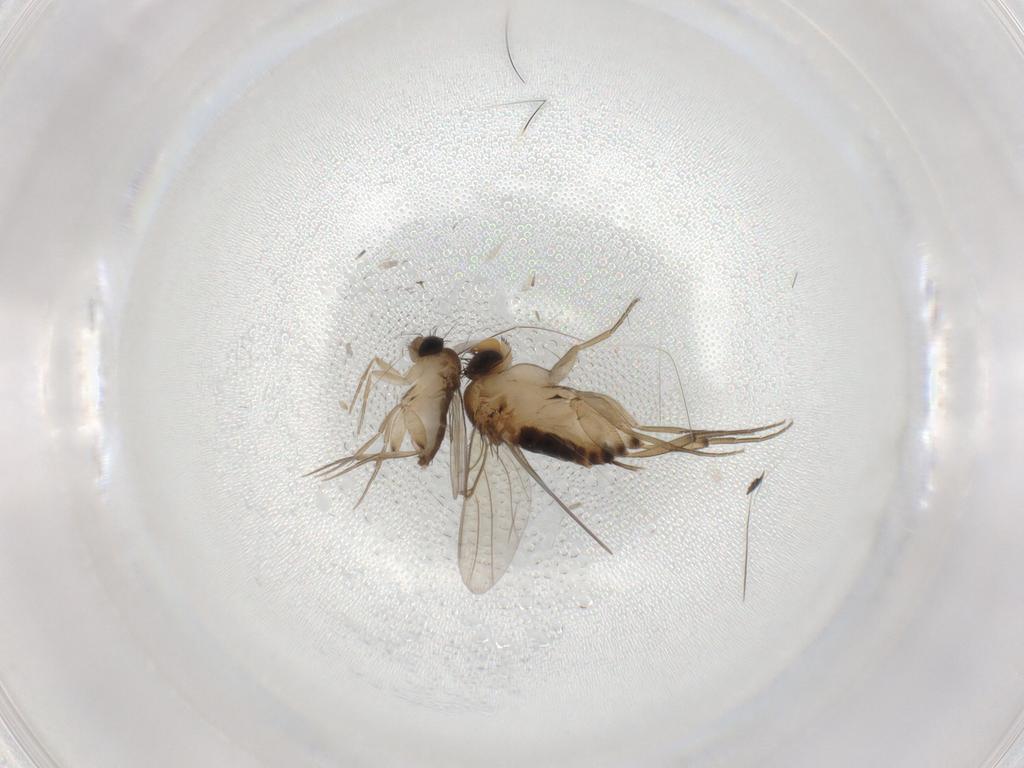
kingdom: Animalia
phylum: Arthropoda
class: Insecta
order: Diptera
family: Phoridae
